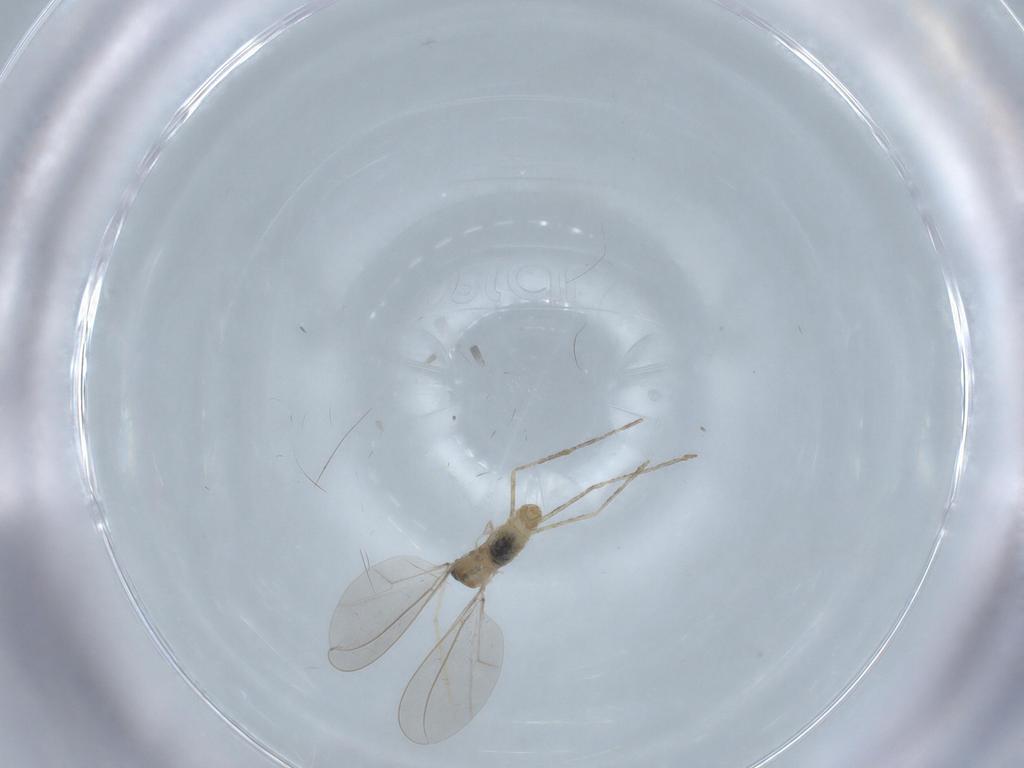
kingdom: Animalia
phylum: Arthropoda
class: Insecta
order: Diptera
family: Cecidomyiidae
